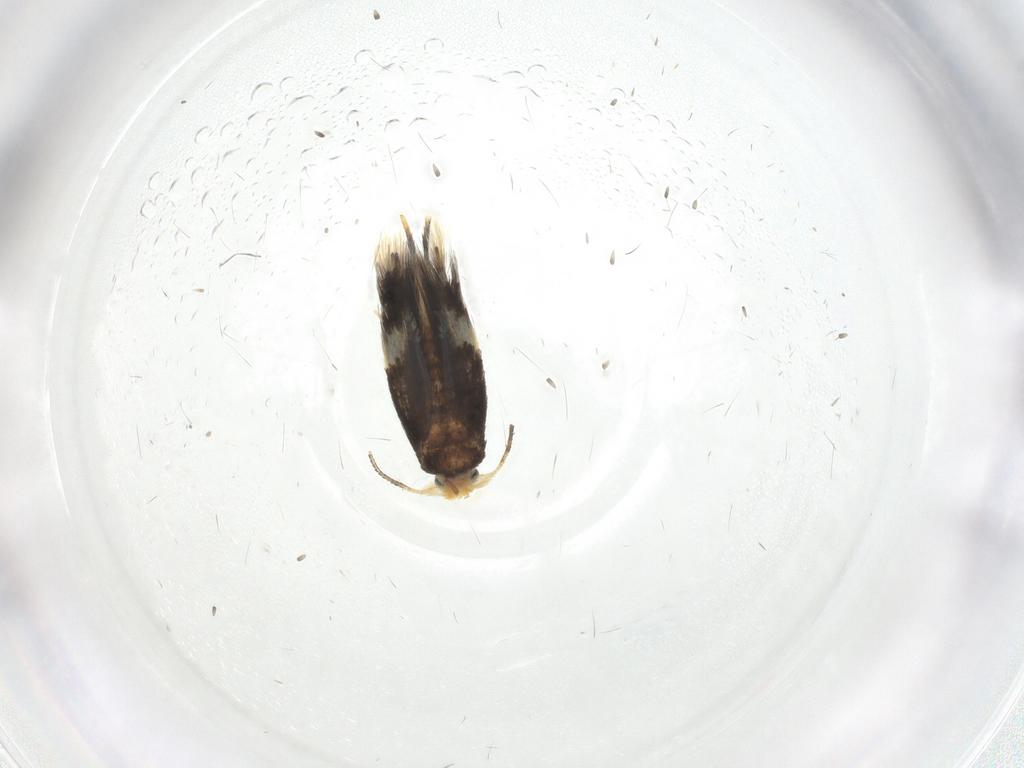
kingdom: Animalia
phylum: Arthropoda
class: Insecta
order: Lepidoptera
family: Nepticulidae
